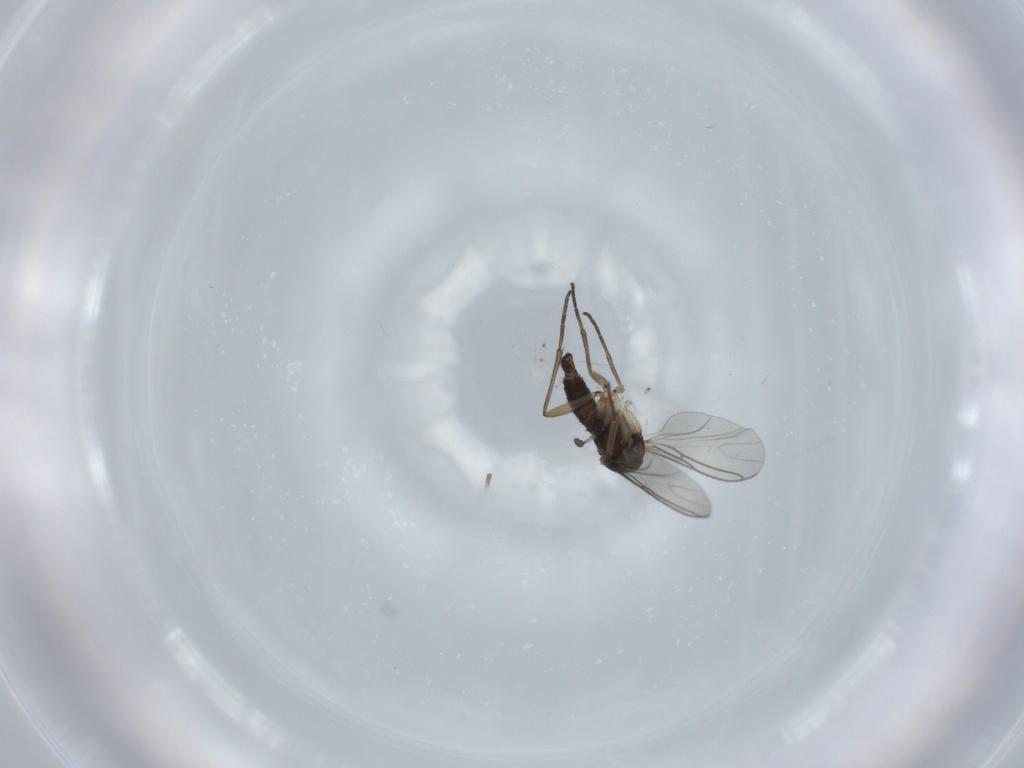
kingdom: Animalia
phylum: Arthropoda
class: Insecta
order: Diptera
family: Sciaridae
